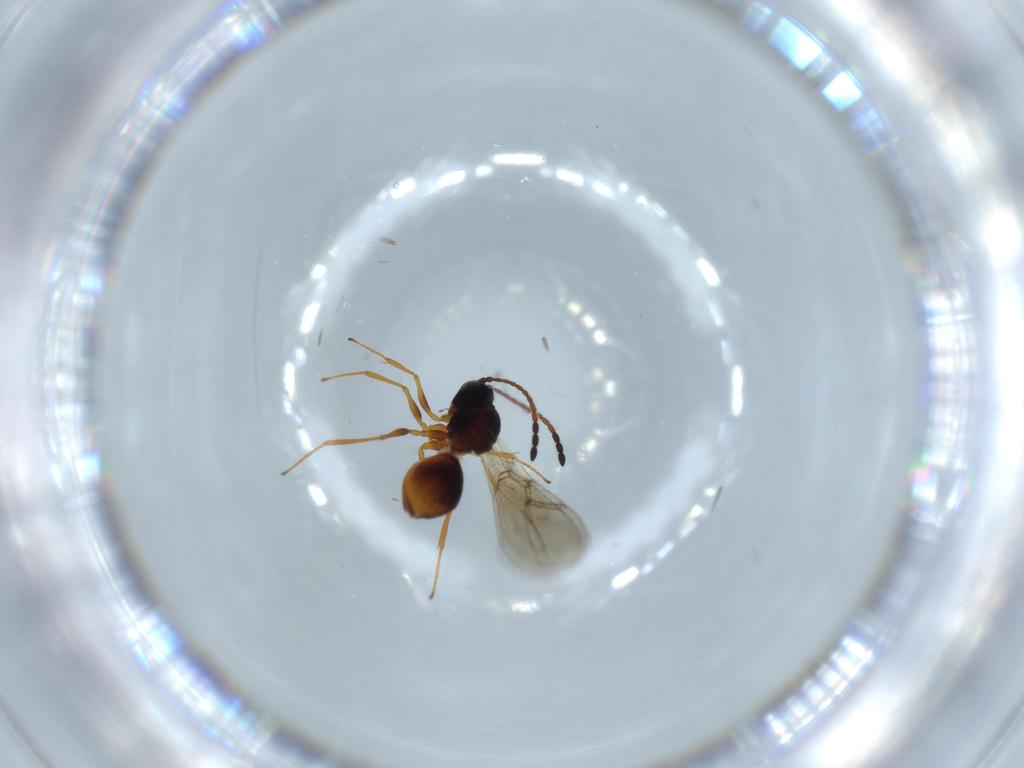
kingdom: Animalia
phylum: Arthropoda
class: Insecta
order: Hymenoptera
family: Figitidae
